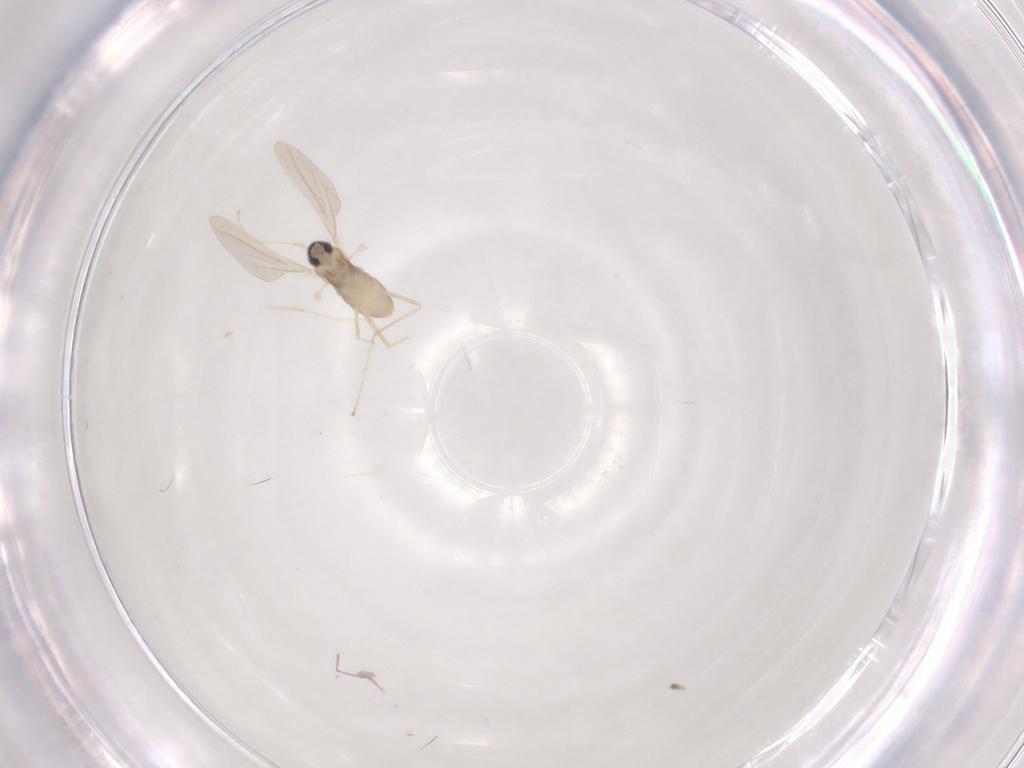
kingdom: Animalia
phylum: Arthropoda
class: Insecta
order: Diptera
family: Cecidomyiidae
